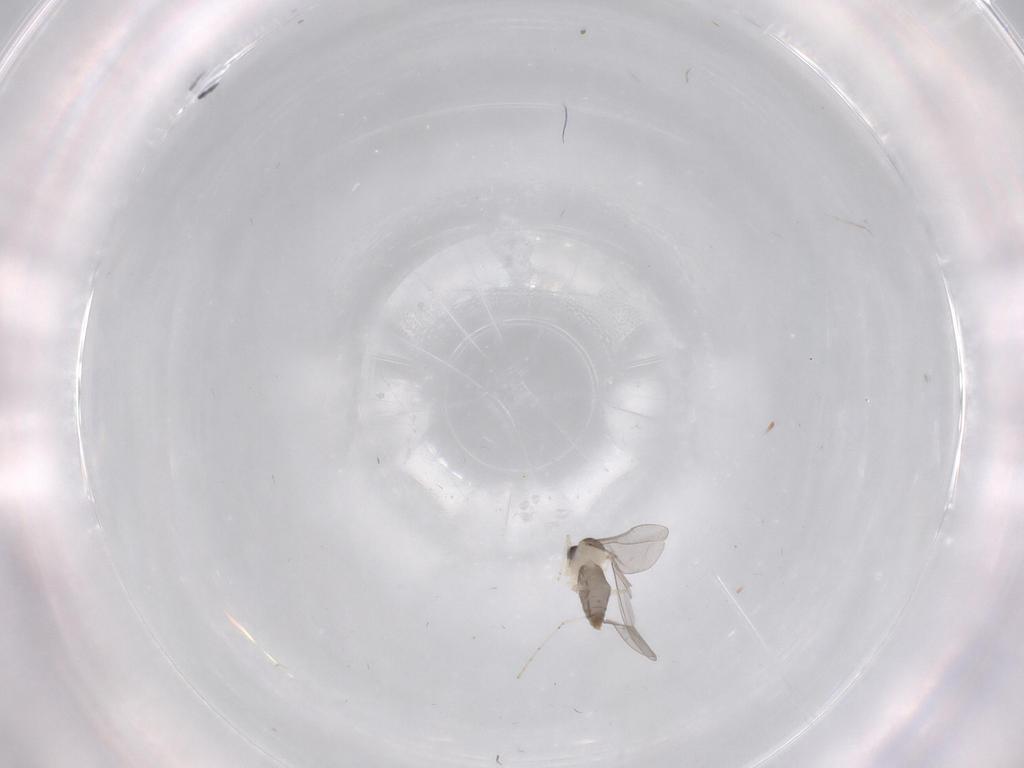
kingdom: Animalia
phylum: Arthropoda
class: Insecta
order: Diptera
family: Cecidomyiidae
